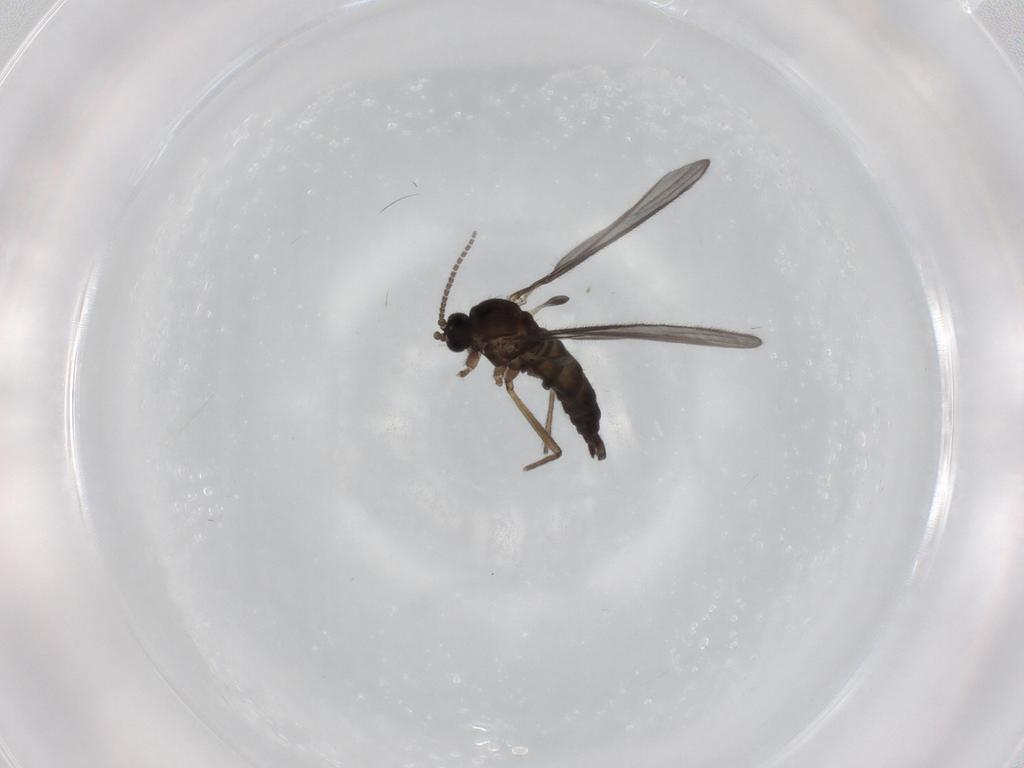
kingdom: Animalia
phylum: Arthropoda
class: Insecta
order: Diptera
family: Sciaridae
